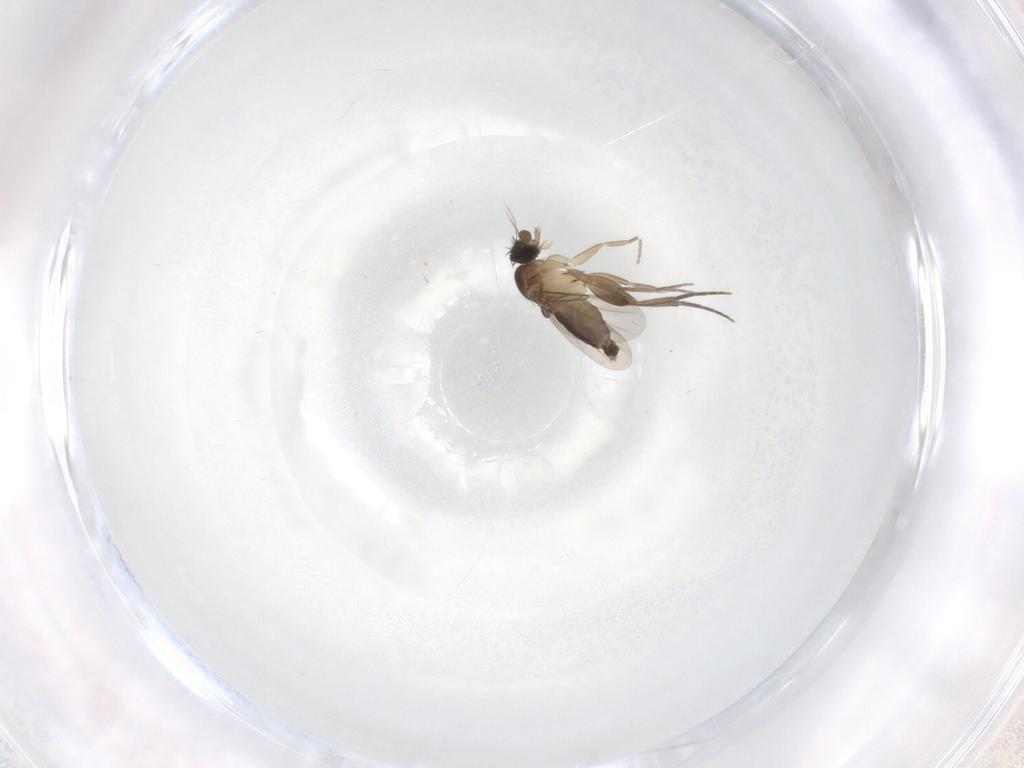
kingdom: Animalia
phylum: Arthropoda
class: Insecta
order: Diptera
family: Phoridae
